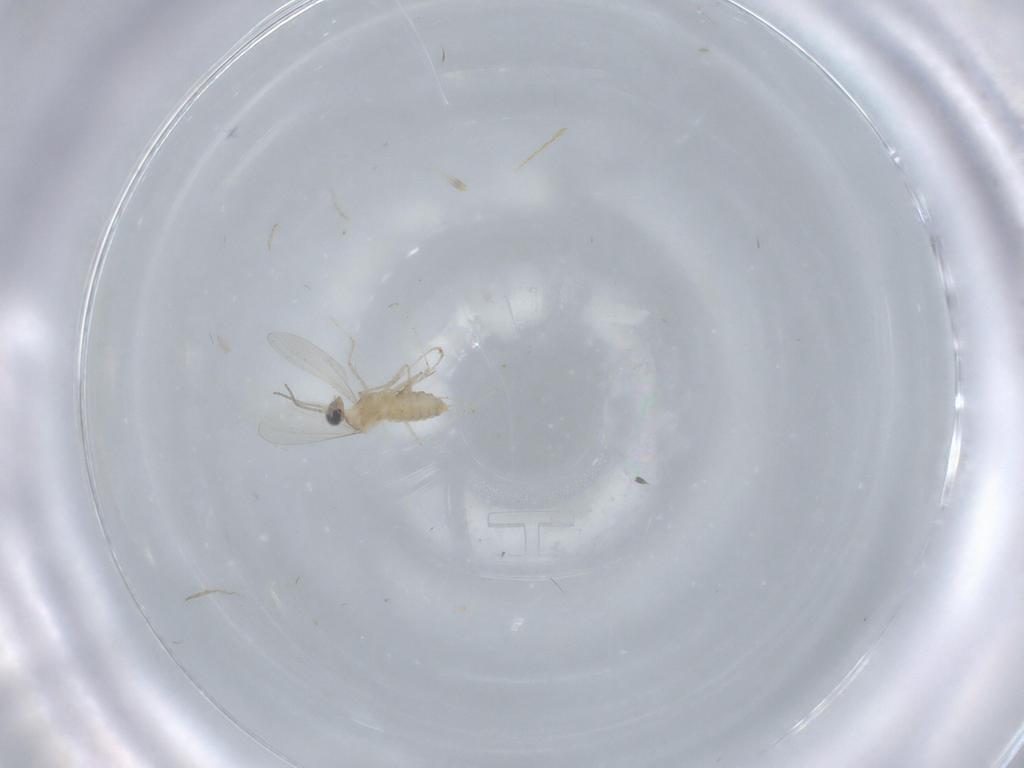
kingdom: Animalia
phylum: Arthropoda
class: Insecta
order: Diptera
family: Cecidomyiidae
